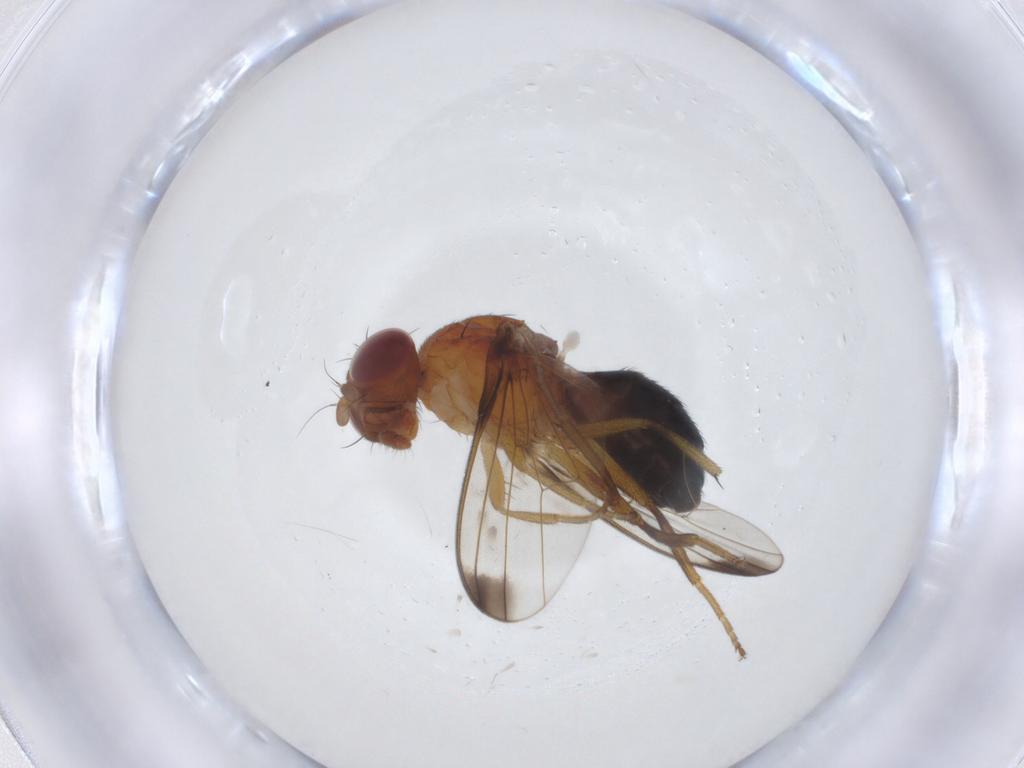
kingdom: Animalia
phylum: Arthropoda
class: Insecta
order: Diptera
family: Piophilidae
